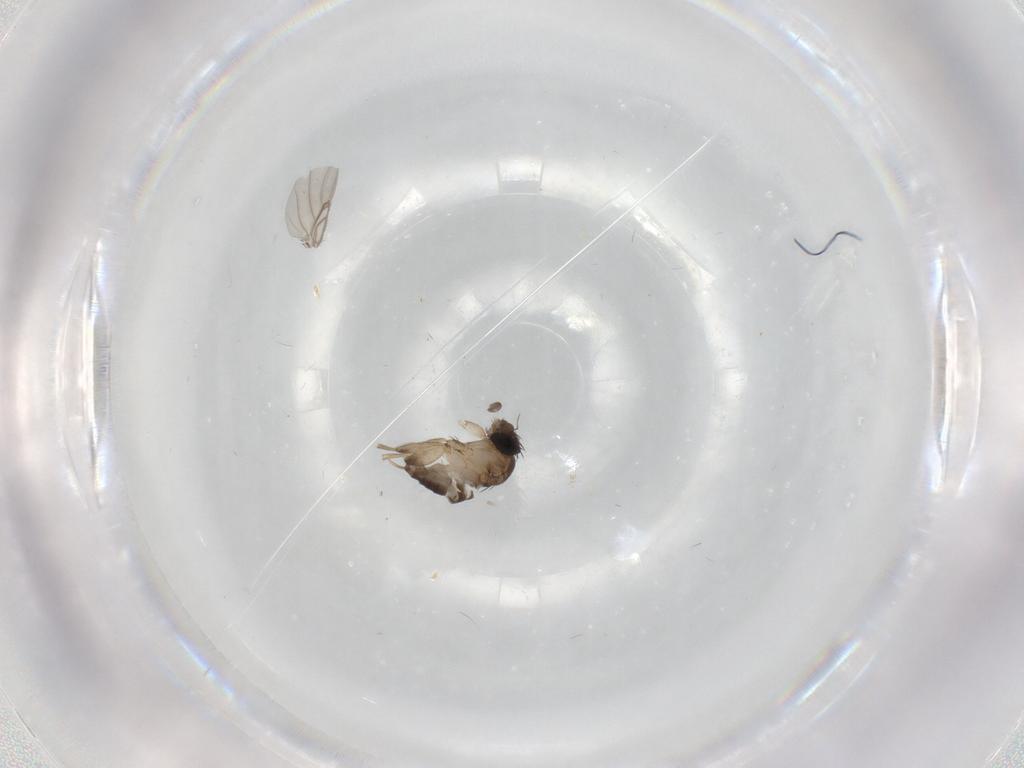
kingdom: Animalia
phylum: Arthropoda
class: Insecta
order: Diptera
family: Phoridae
